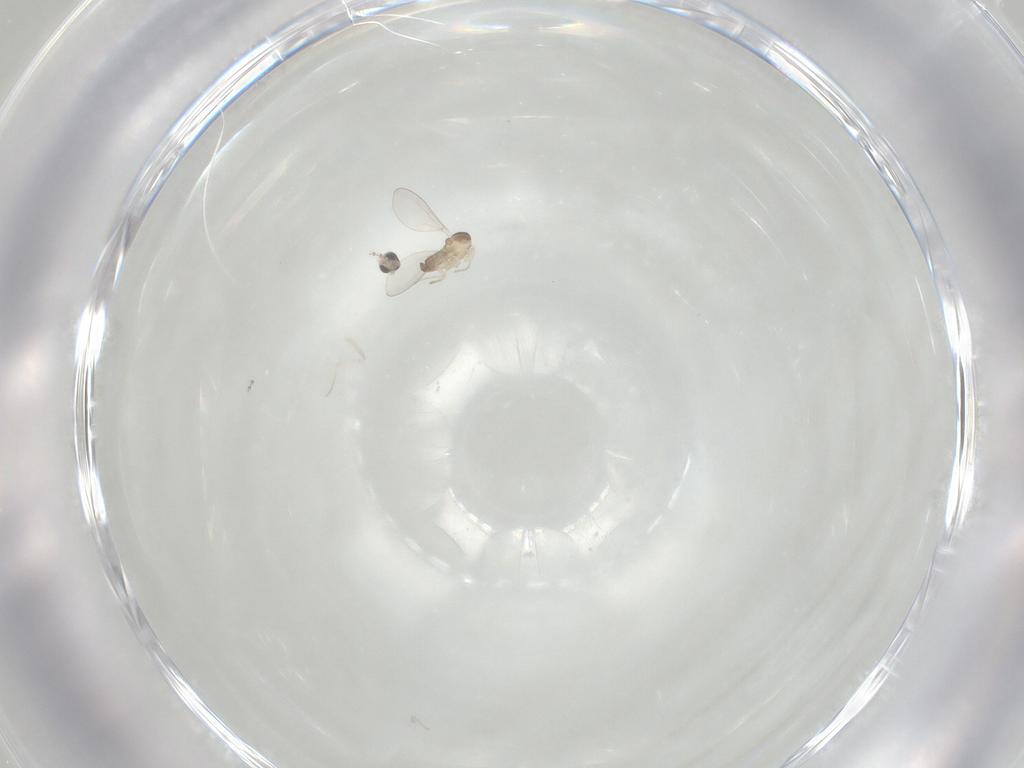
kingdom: Animalia
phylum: Arthropoda
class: Insecta
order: Diptera
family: Cecidomyiidae
